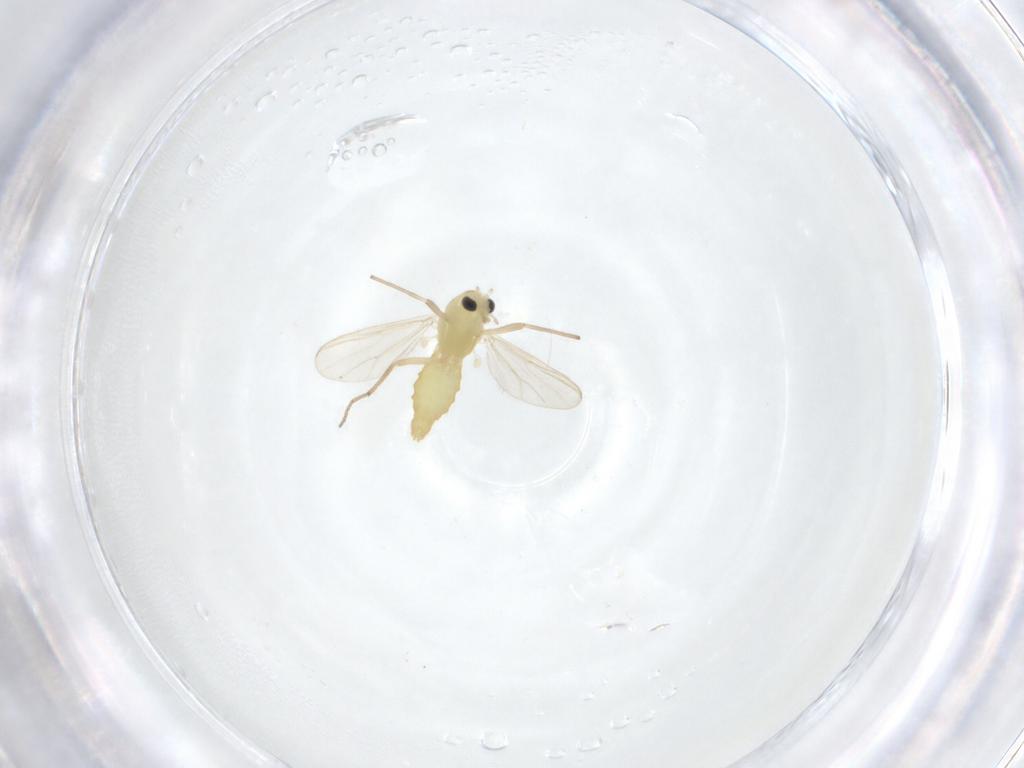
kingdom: Animalia
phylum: Arthropoda
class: Insecta
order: Diptera
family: Chironomidae
